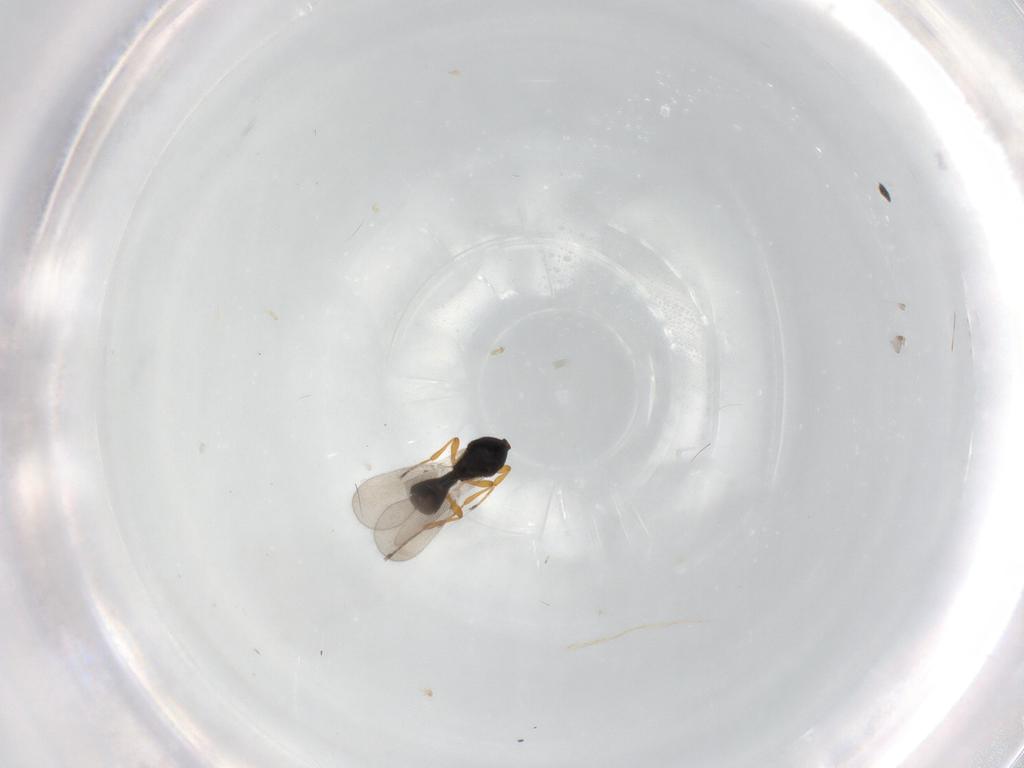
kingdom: Animalia
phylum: Arthropoda
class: Insecta
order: Hymenoptera
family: Platygastridae
